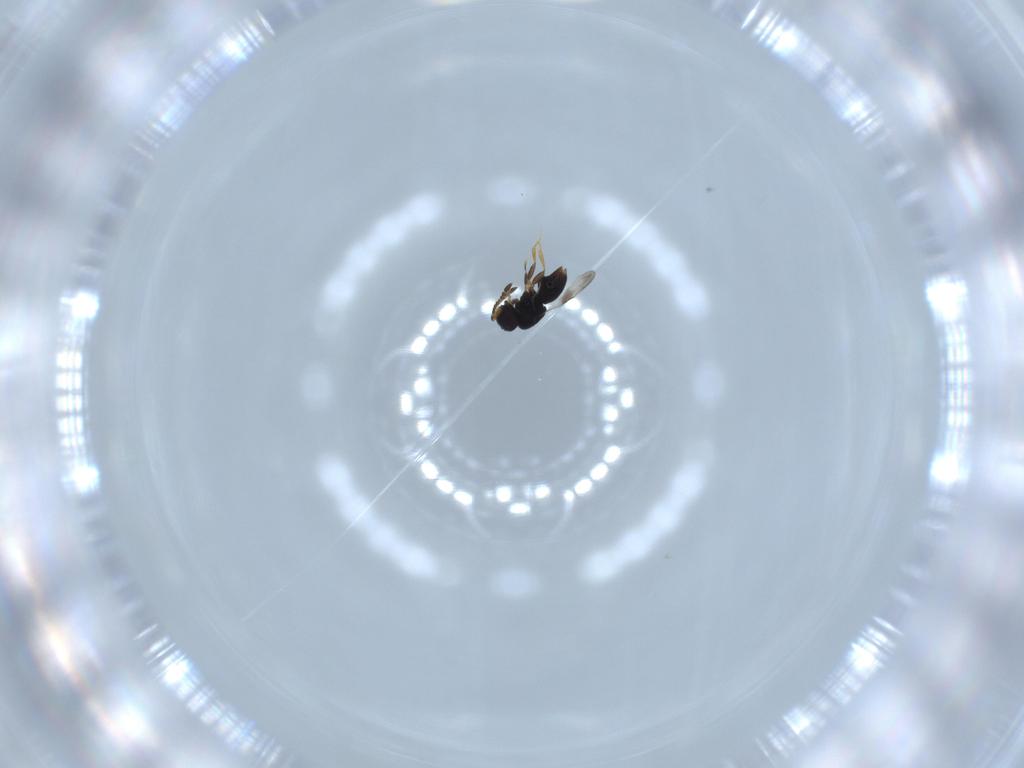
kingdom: Animalia
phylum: Arthropoda
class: Insecta
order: Hymenoptera
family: Ceraphronidae
